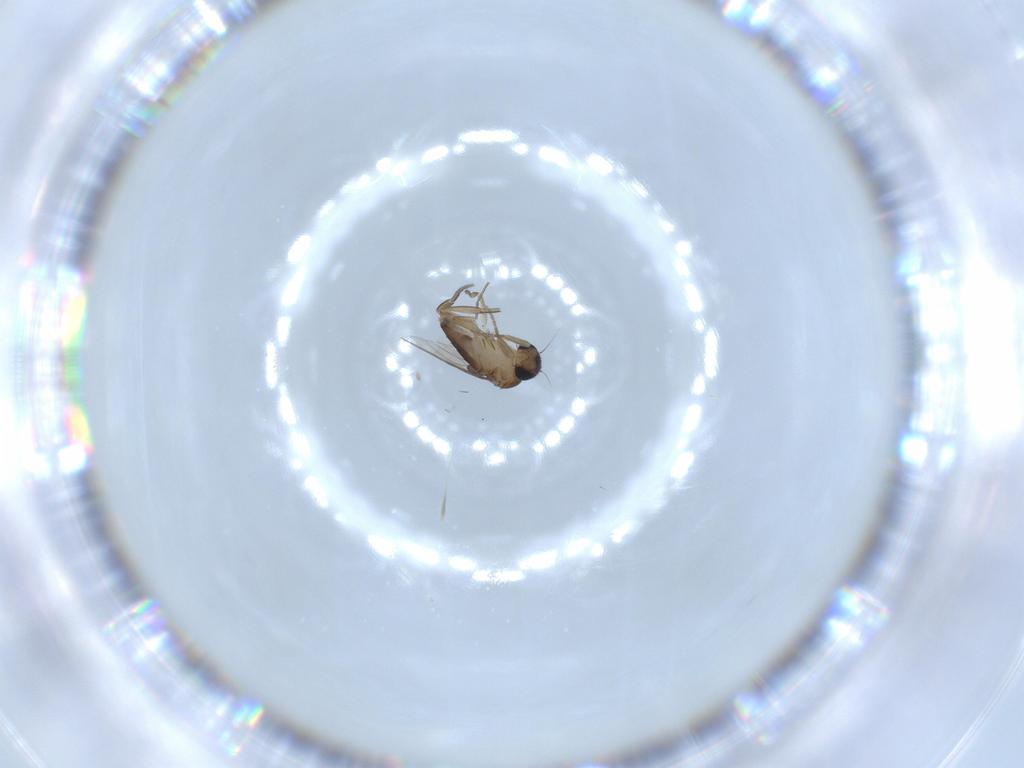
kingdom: Animalia
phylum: Arthropoda
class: Insecta
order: Diptera
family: Phoridae
